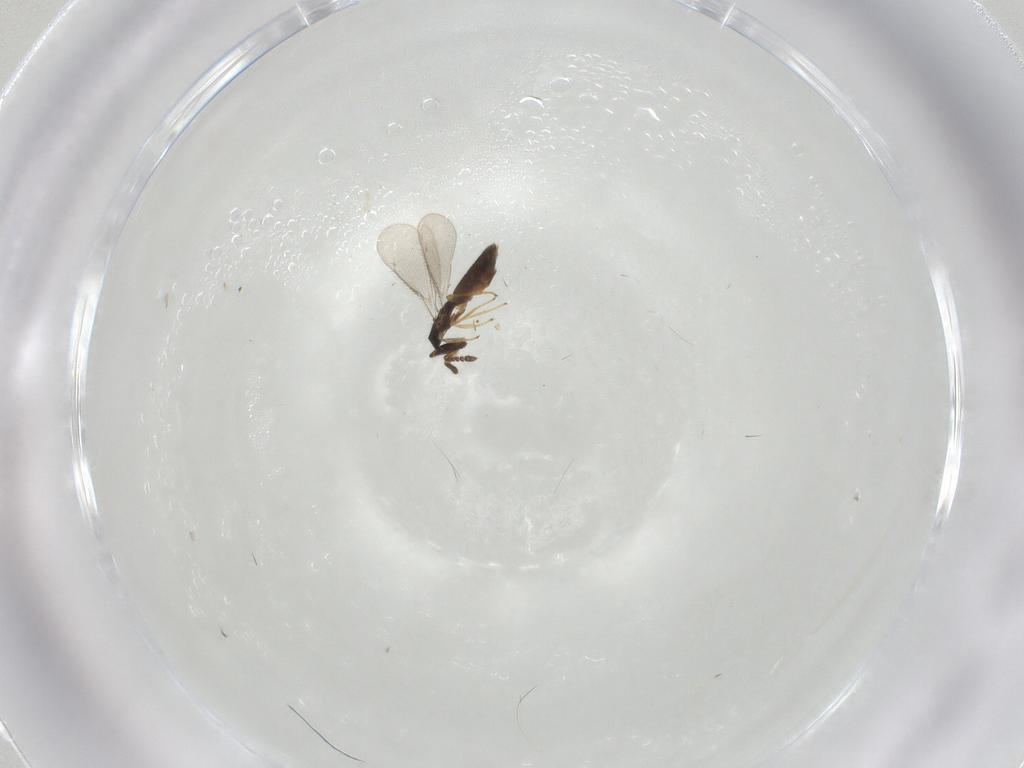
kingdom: Animalia
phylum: Arthropoda
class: Insecta
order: Hymenoptera
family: Eulophidae
